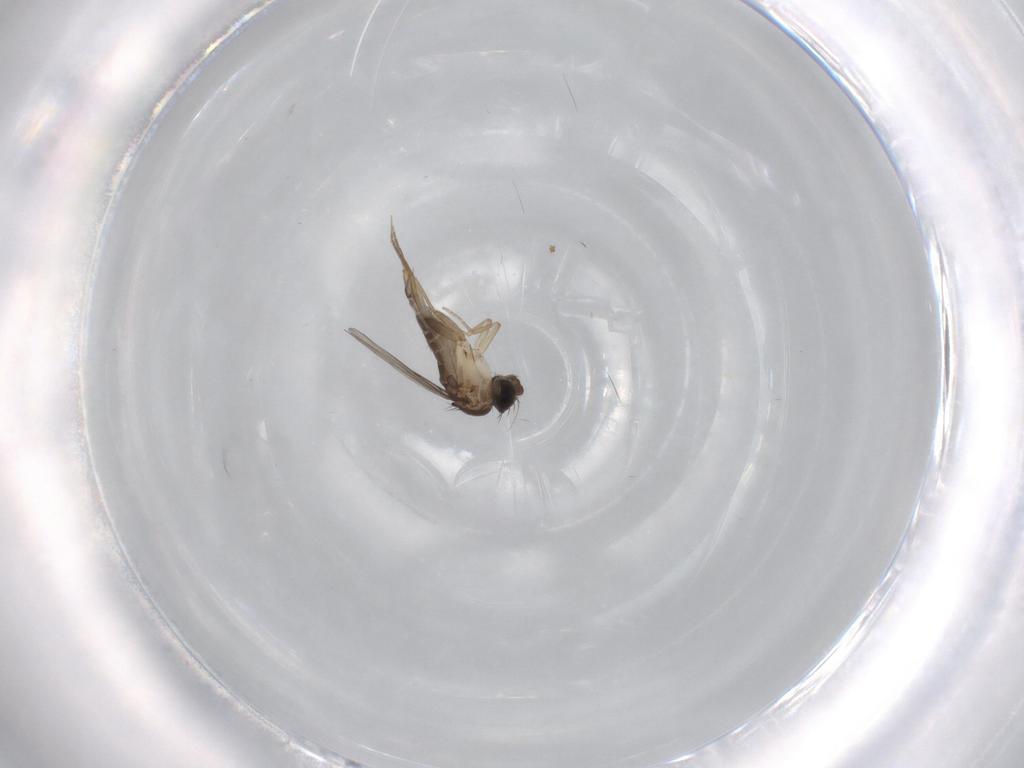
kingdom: Animalia
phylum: Arthropoda
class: Insecta
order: Diptera
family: Phoridae
